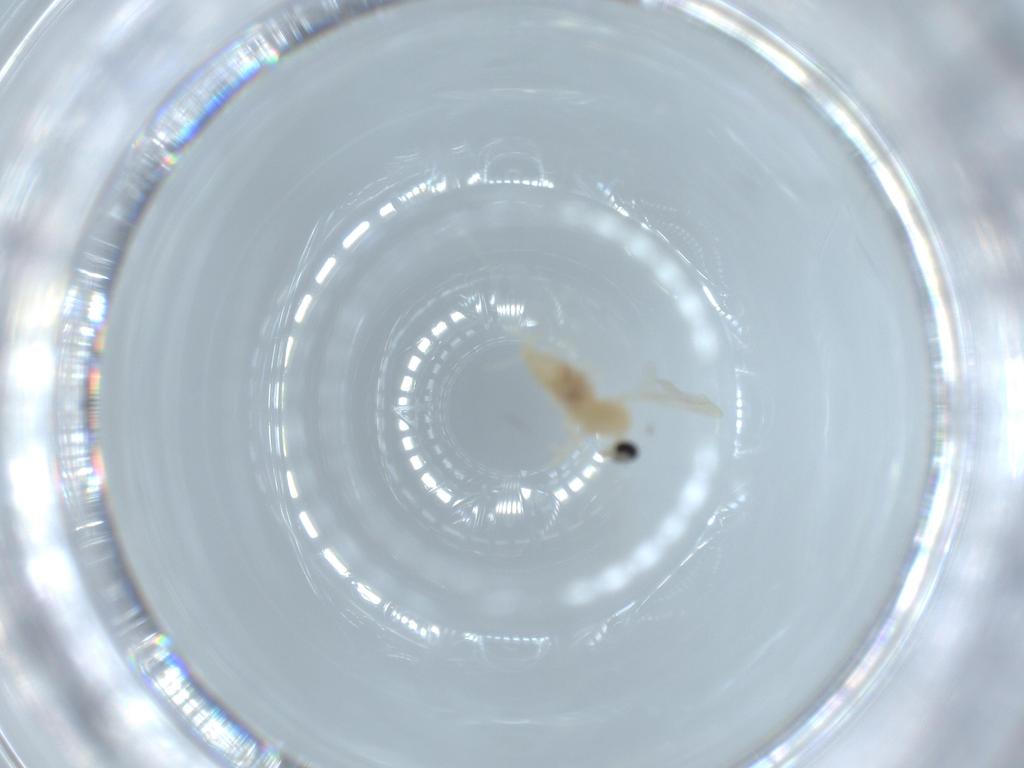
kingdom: Animalia
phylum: Arthropoda
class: Insecta
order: Diptera
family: Cecidomyiidae
